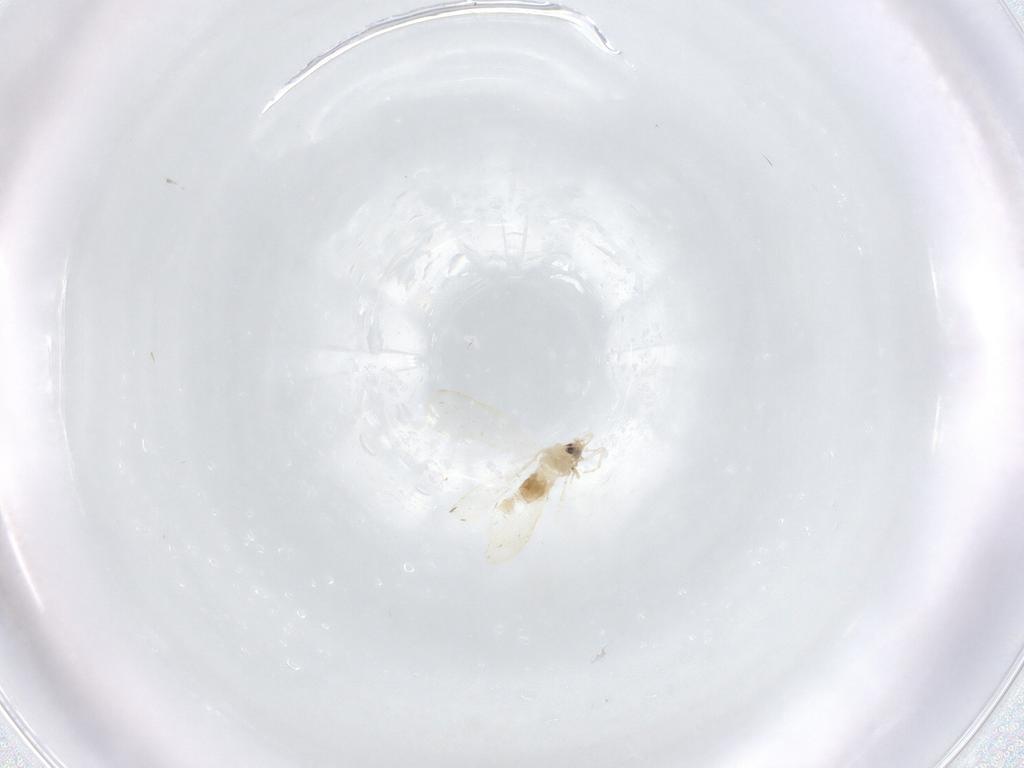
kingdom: Animalia
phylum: Arthropoda
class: Insecta
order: Hemiptera
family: Aleyrodidae
